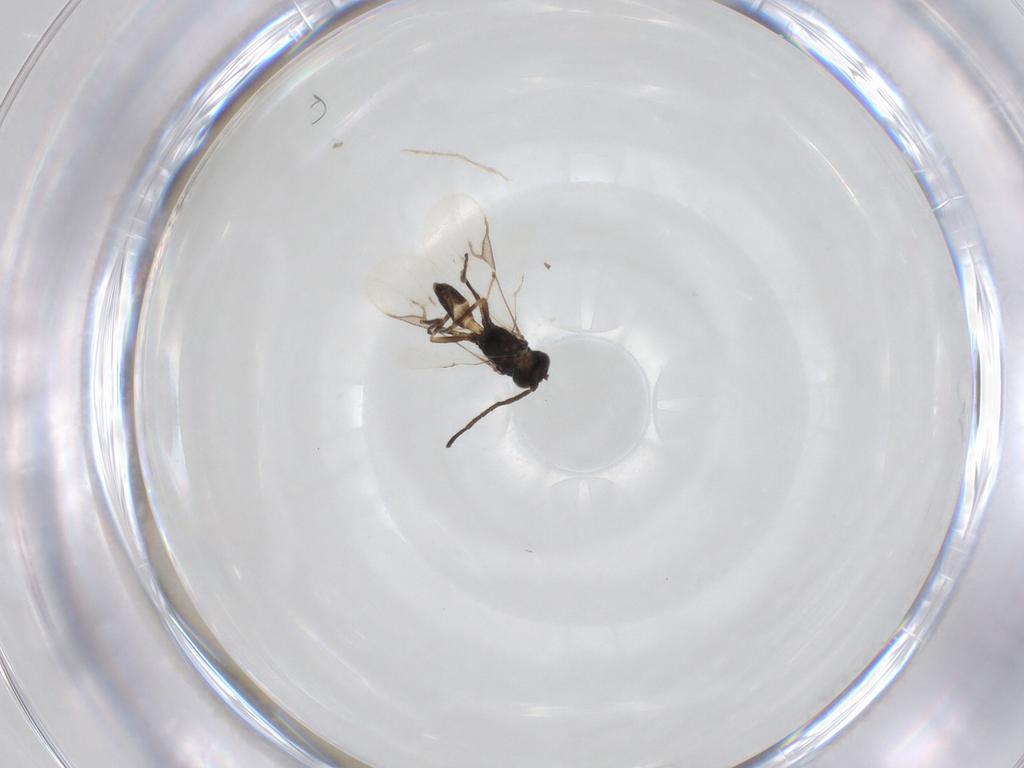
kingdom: Animalia
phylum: Arthropoda
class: Insecta
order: Hymenoptera
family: Braconidae
